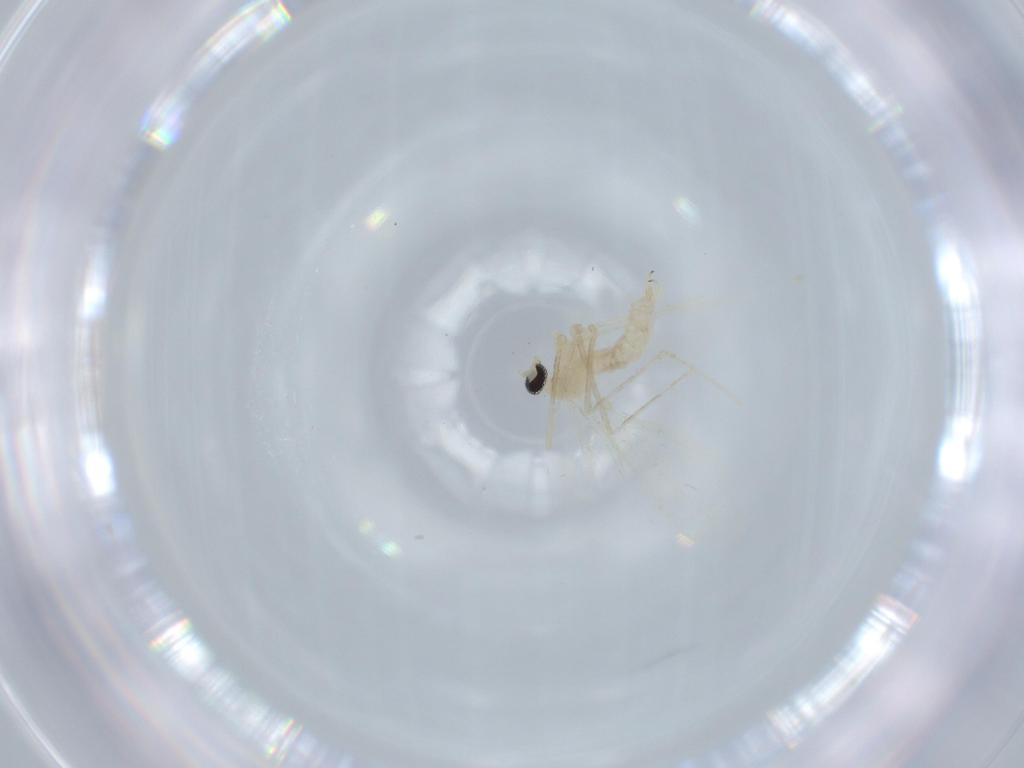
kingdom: Animalia
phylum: Arthropoda
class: Insecta
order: Diptera
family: Cecidomyiidae
